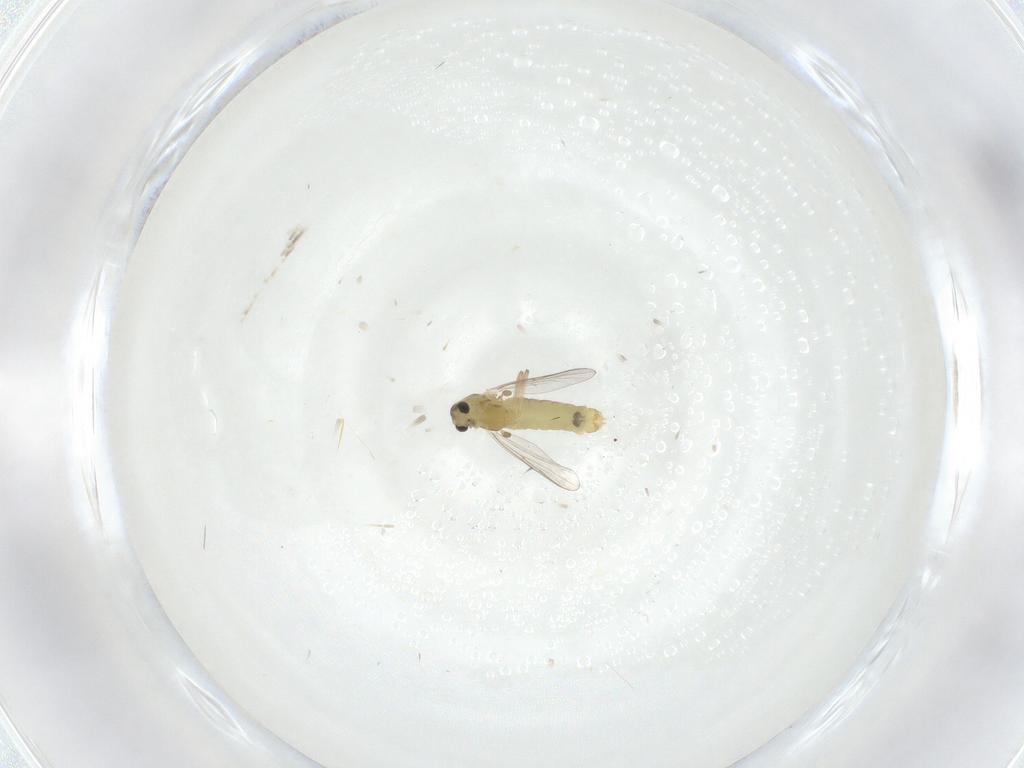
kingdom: Animalia
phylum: Arthropoda
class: Insecta
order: Diptera
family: Chironomidae
